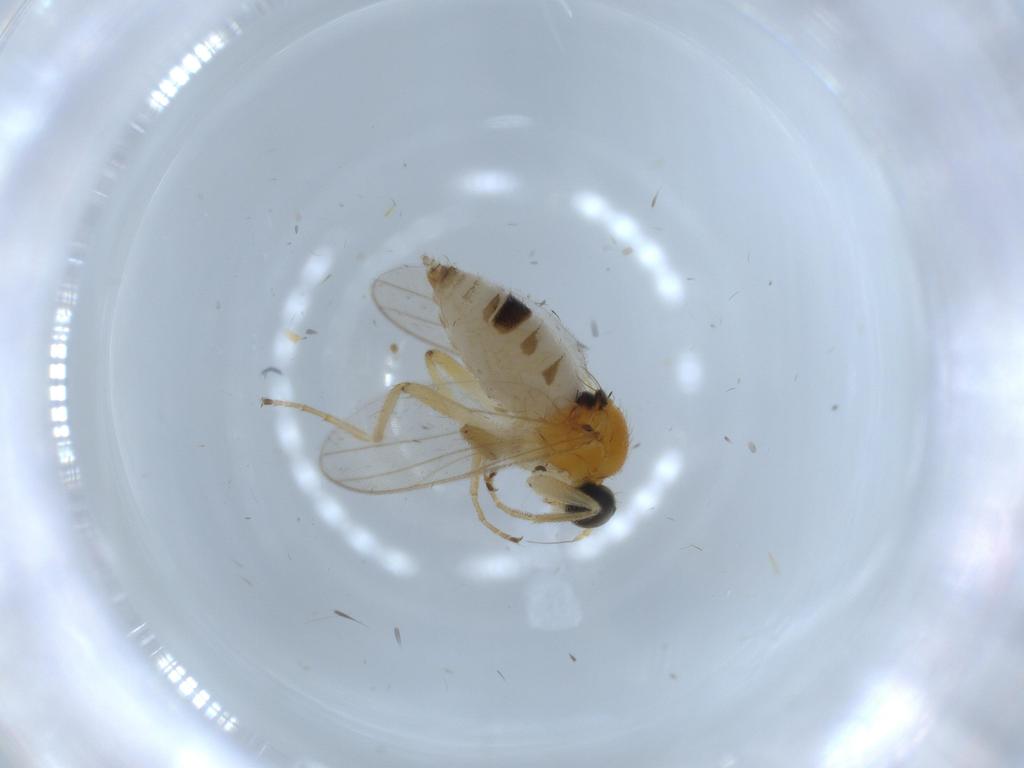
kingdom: Animalia
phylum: Arthropoda
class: Insecta
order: Diptera
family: Hybotidae
